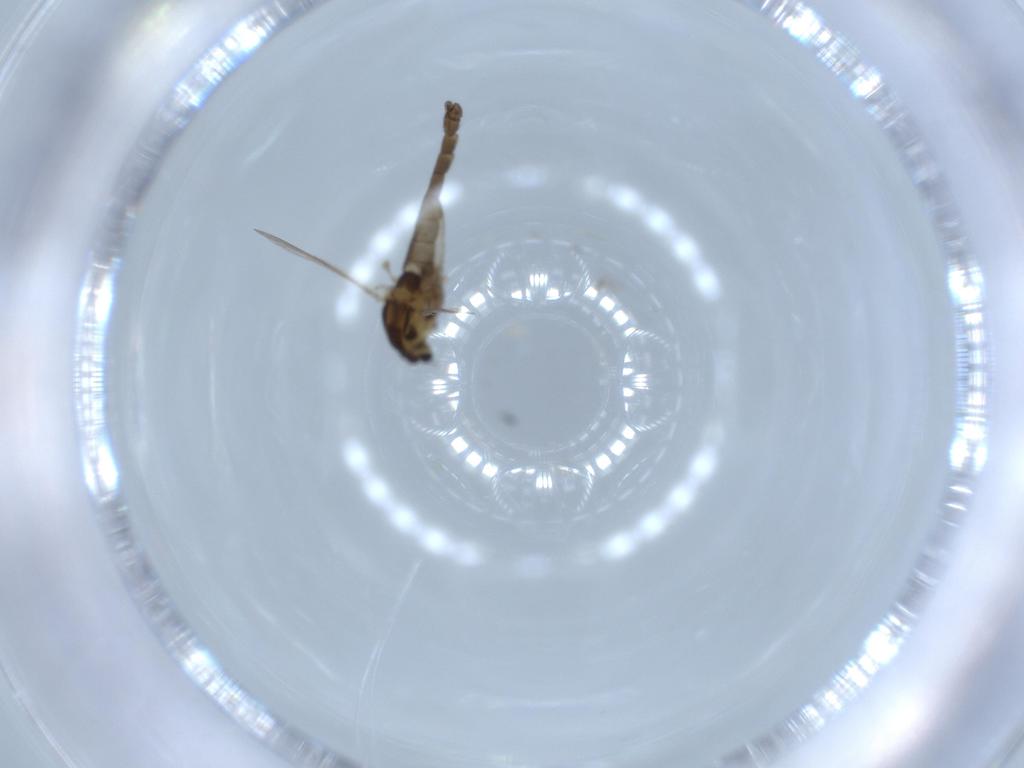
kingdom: Animalia
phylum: Arthropoda
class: Insecta
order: Diptera
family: Chironomidae
